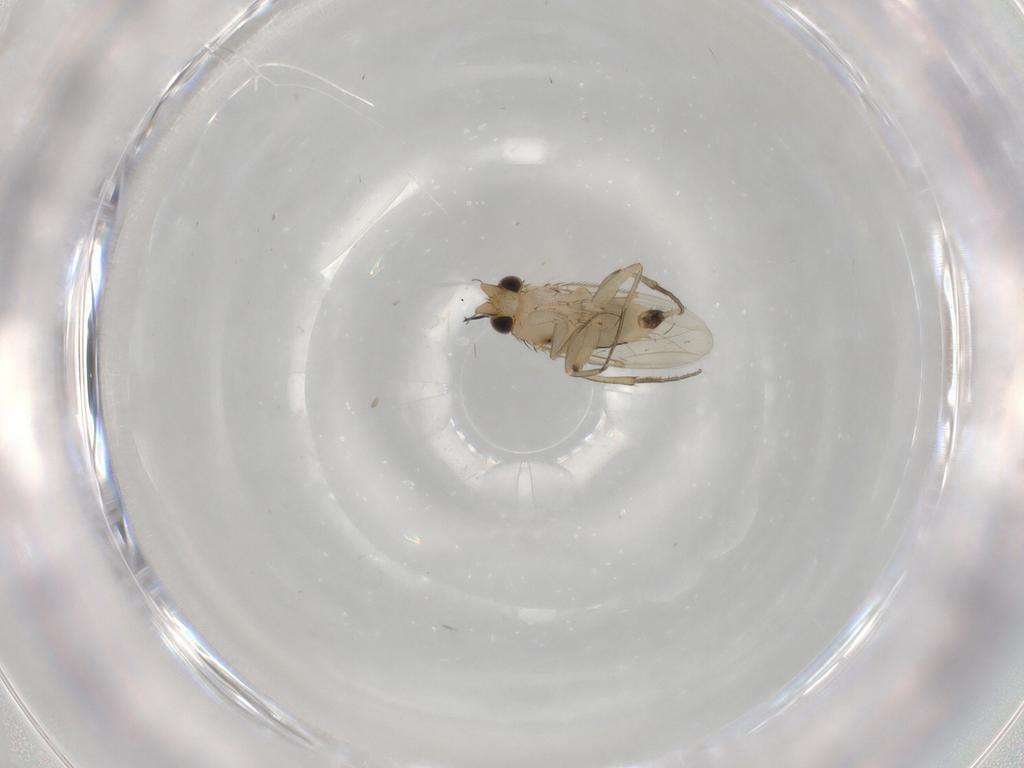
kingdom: Animalia
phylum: Arthropoda
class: Insecta
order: Diptera
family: Phoridae
